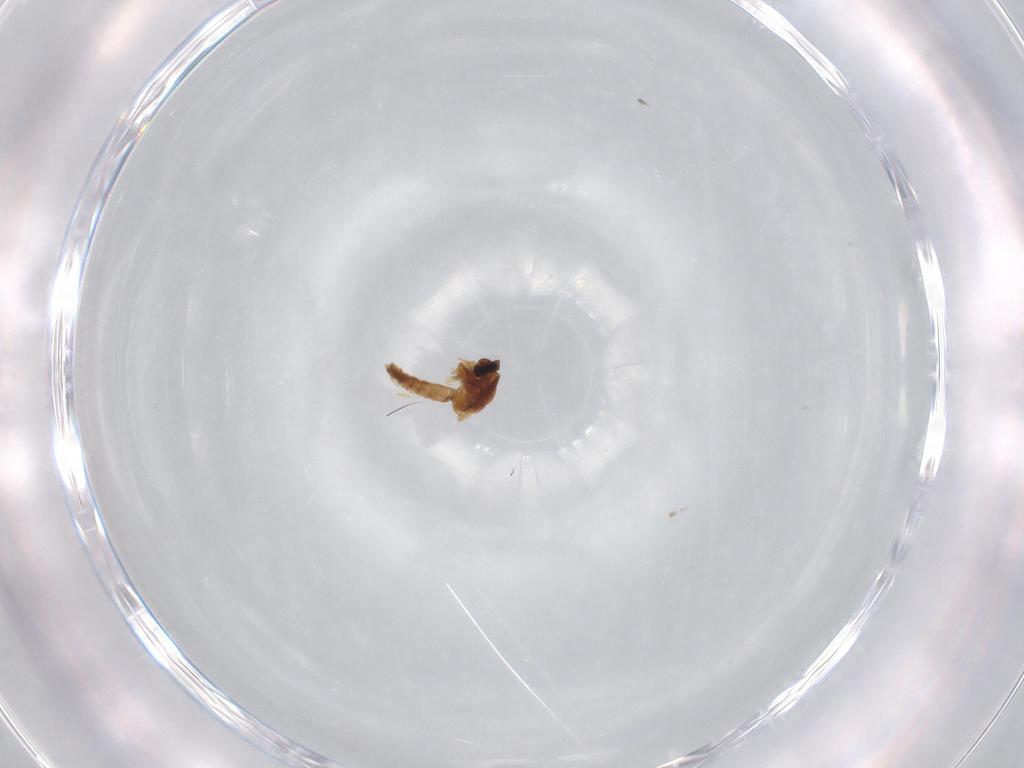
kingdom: Animalia
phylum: Arthropoda
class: Insecta
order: Diptera
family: Ceratopogonidae
